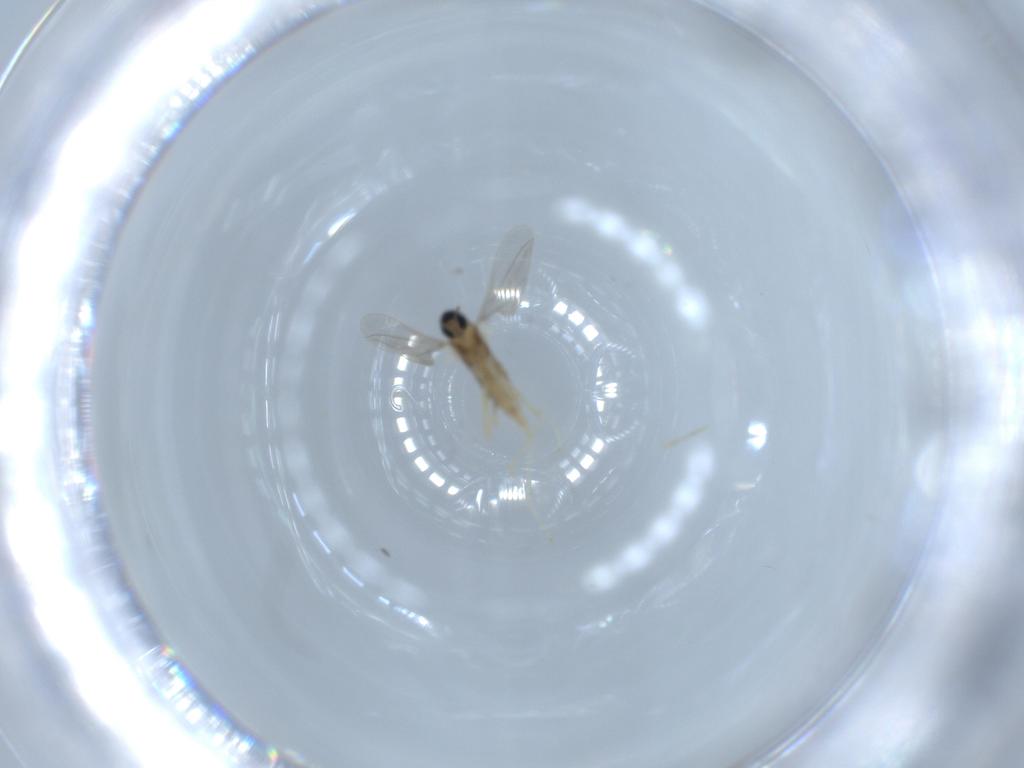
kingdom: Animalia
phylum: Arthropoda
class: Insecta
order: Diptera
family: Cecidomyiidae
